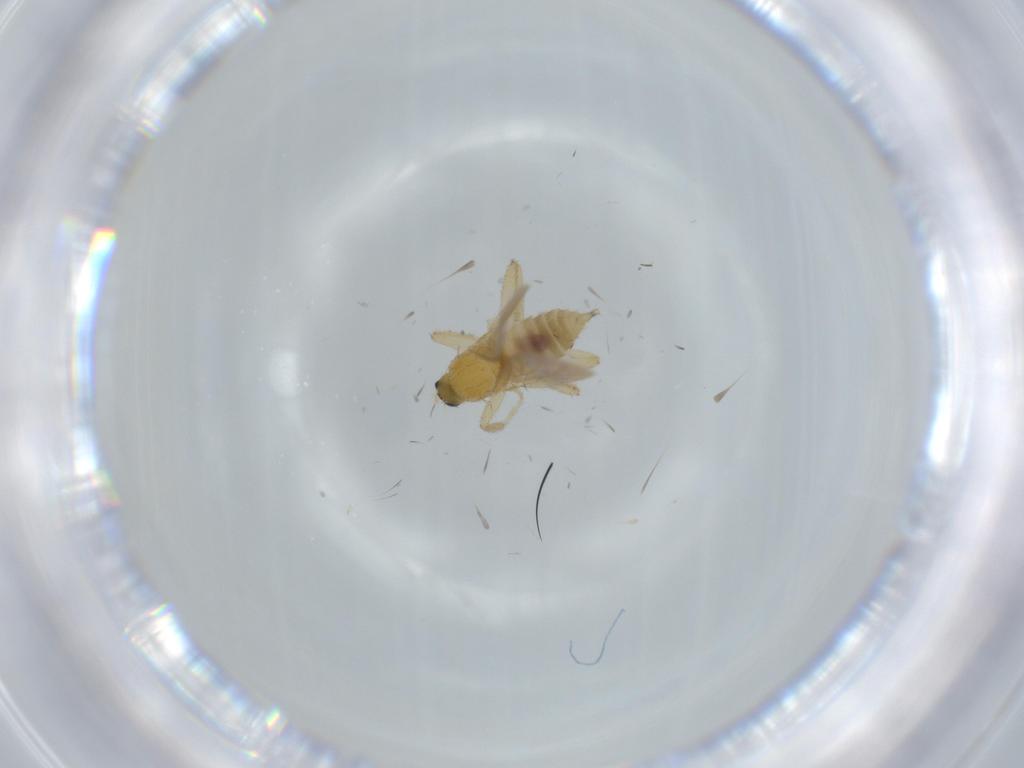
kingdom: Animalia
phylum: Arthropoda
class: Insecta
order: Diptera
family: Hybotidae
